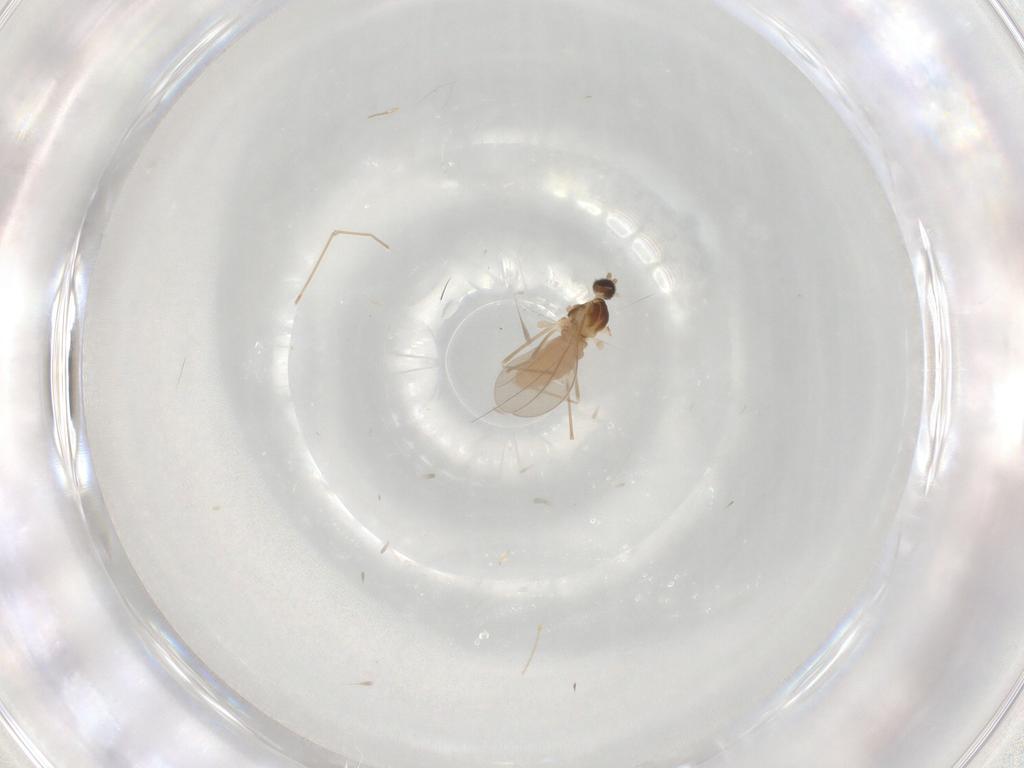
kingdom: Animalia
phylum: Arthropoda
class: Insecta
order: Diptera
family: Cecidomyiidae
